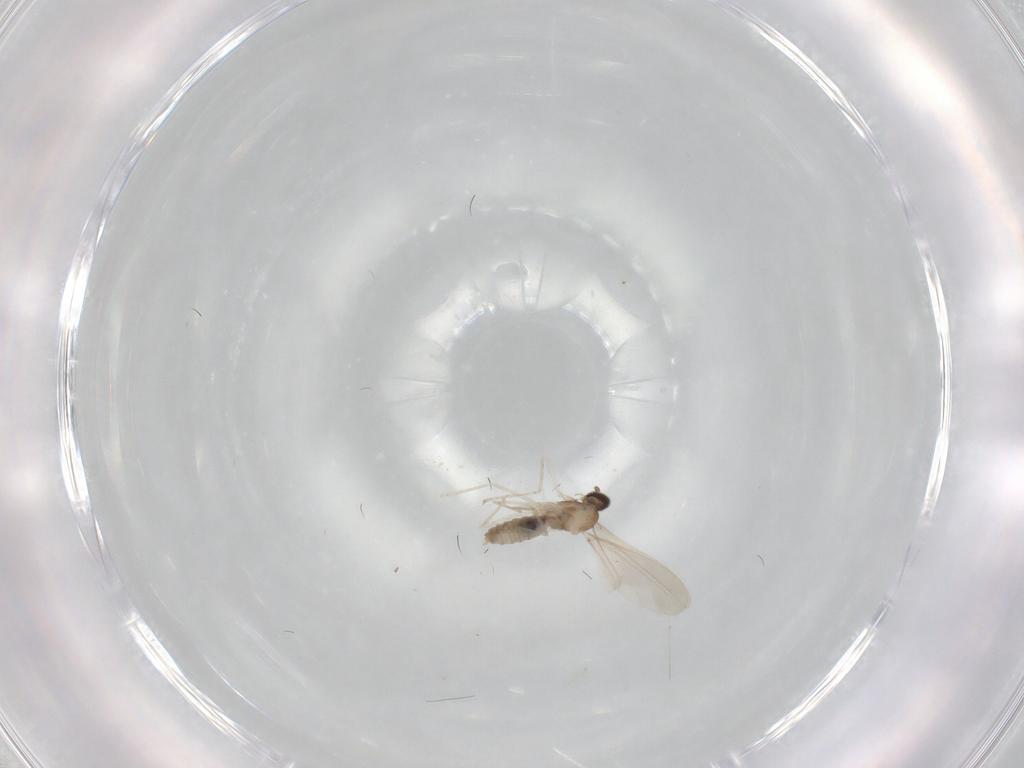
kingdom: Animalia
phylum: Arthropoda
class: Insecta
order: Diptera
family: Cecidomyiidae
